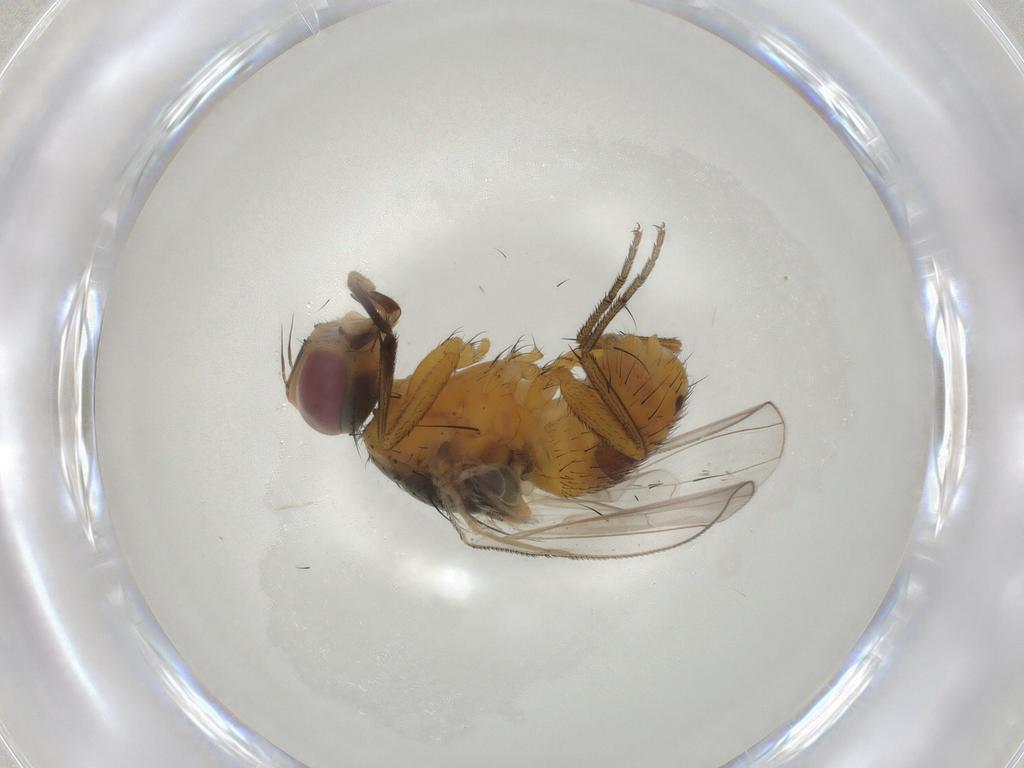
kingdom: Animalia
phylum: Arthropoda
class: Insecta
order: Diptera
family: Muscidae
